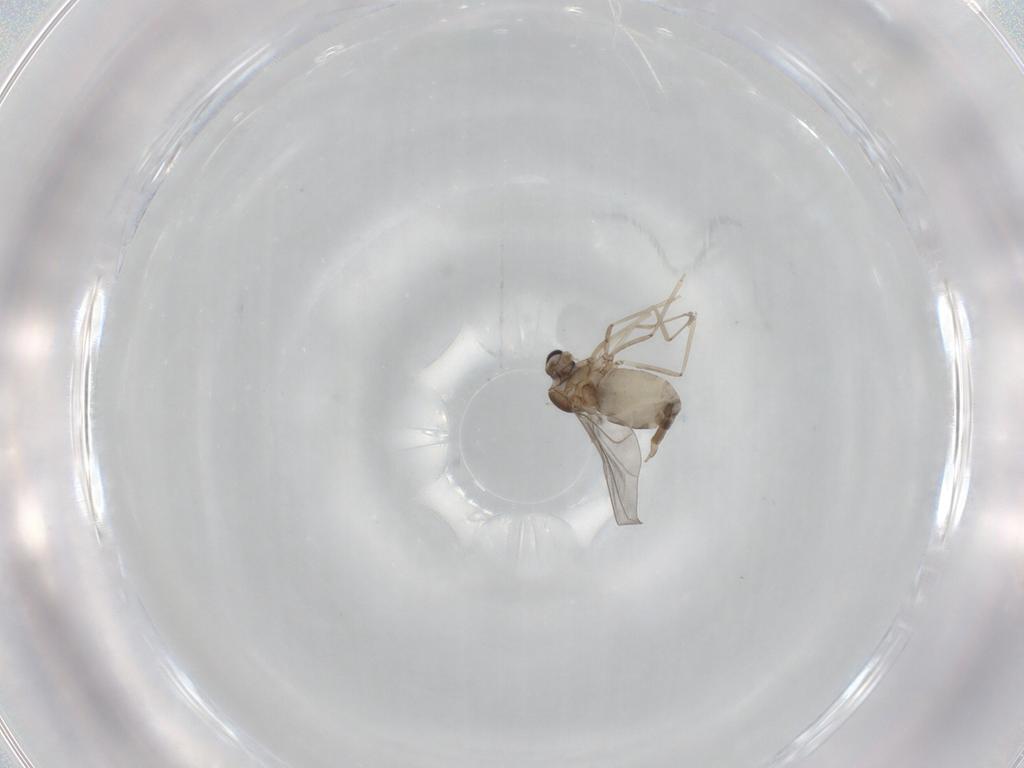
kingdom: Animalia
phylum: Arthropoda
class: Insecta
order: Diptera
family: Cecidomyiidae
